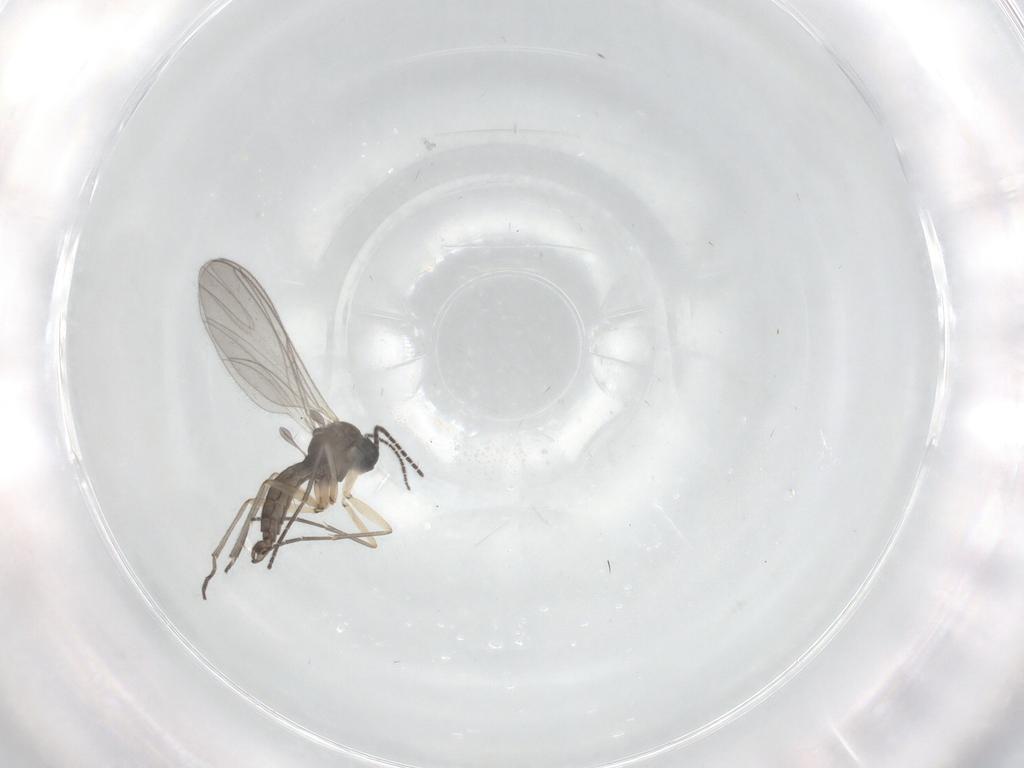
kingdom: Animalia
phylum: Arthropoda
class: Insecta
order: Diptera
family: Sciaridae
